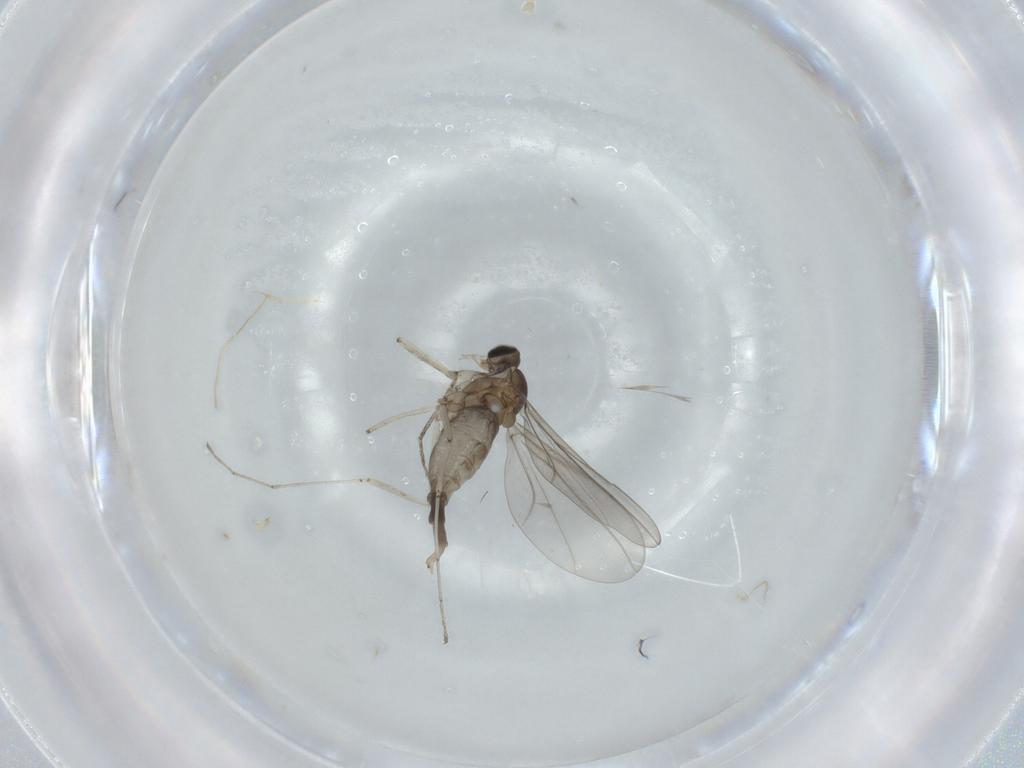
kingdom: Animalia
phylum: Arthropoda
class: Insecta
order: Diptera
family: Cecidomyiidae
